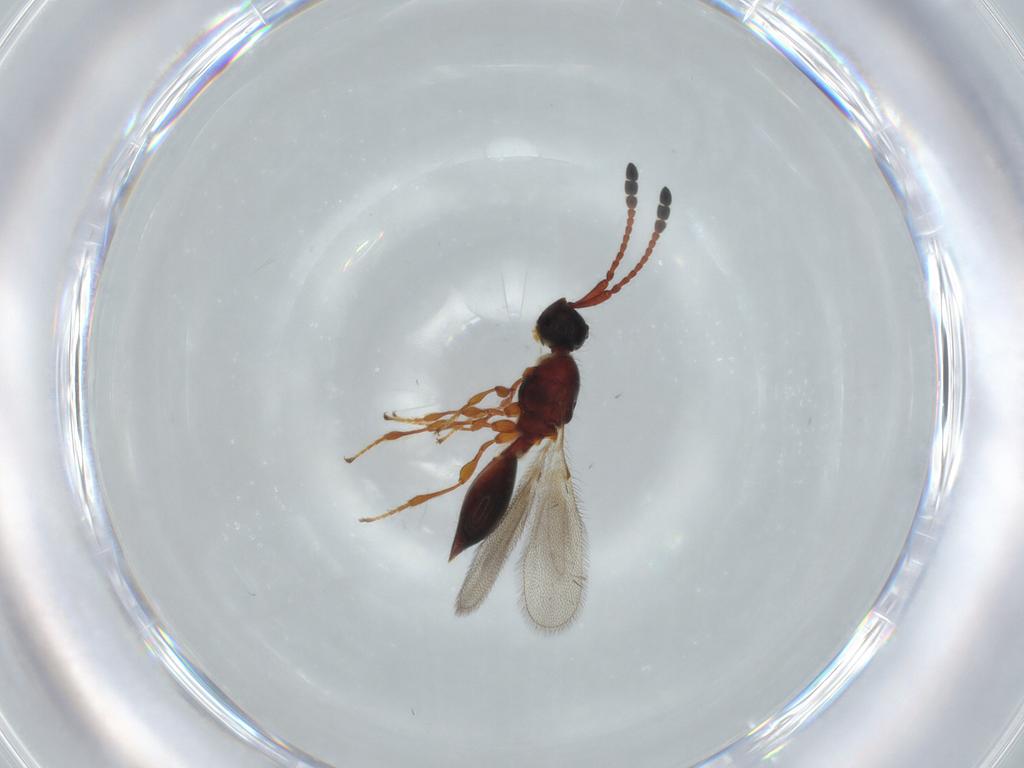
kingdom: Animalia
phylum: Arthropoda
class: Insecta
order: Hymenoptera
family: Diapriidae
